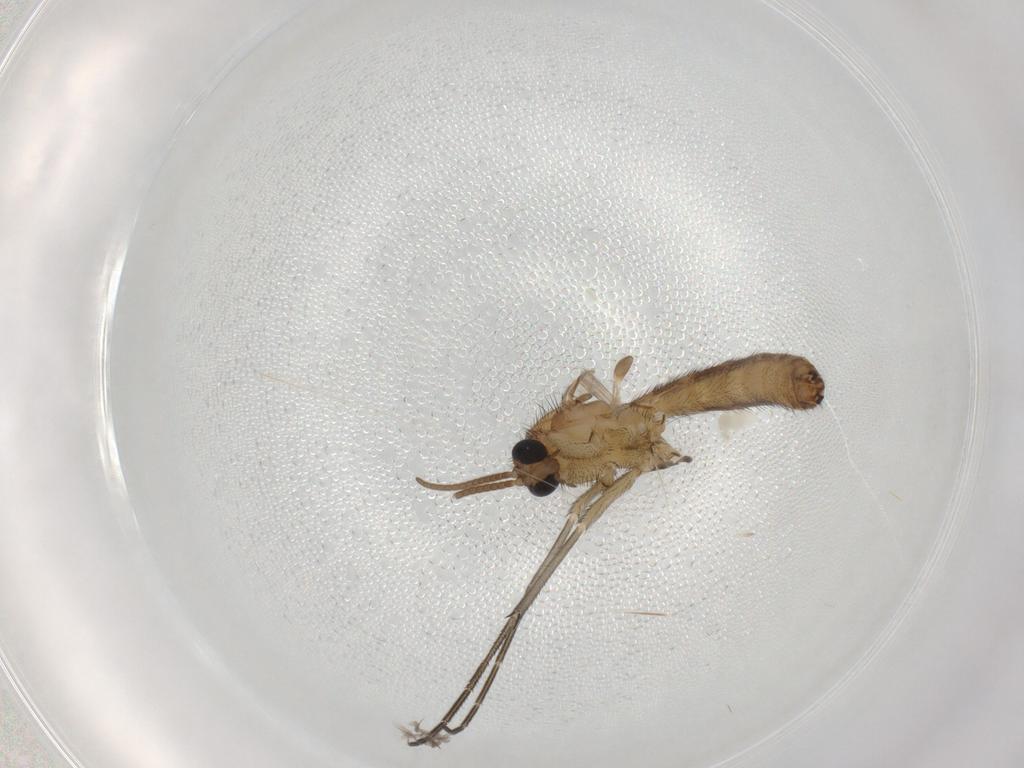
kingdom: Animalia
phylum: Arthropoda
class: Insecta
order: Diptera
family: Keroplatidae
